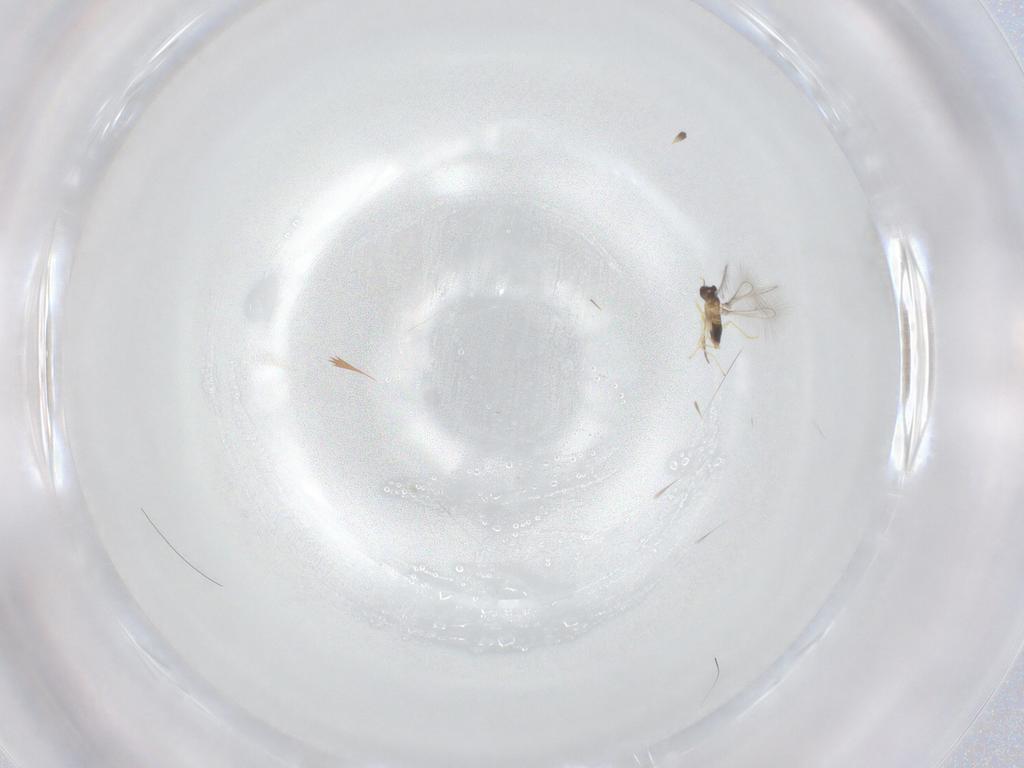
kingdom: Animalia
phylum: Arthropoda
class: Insecta
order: Hymenoptera
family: Mymaridae
